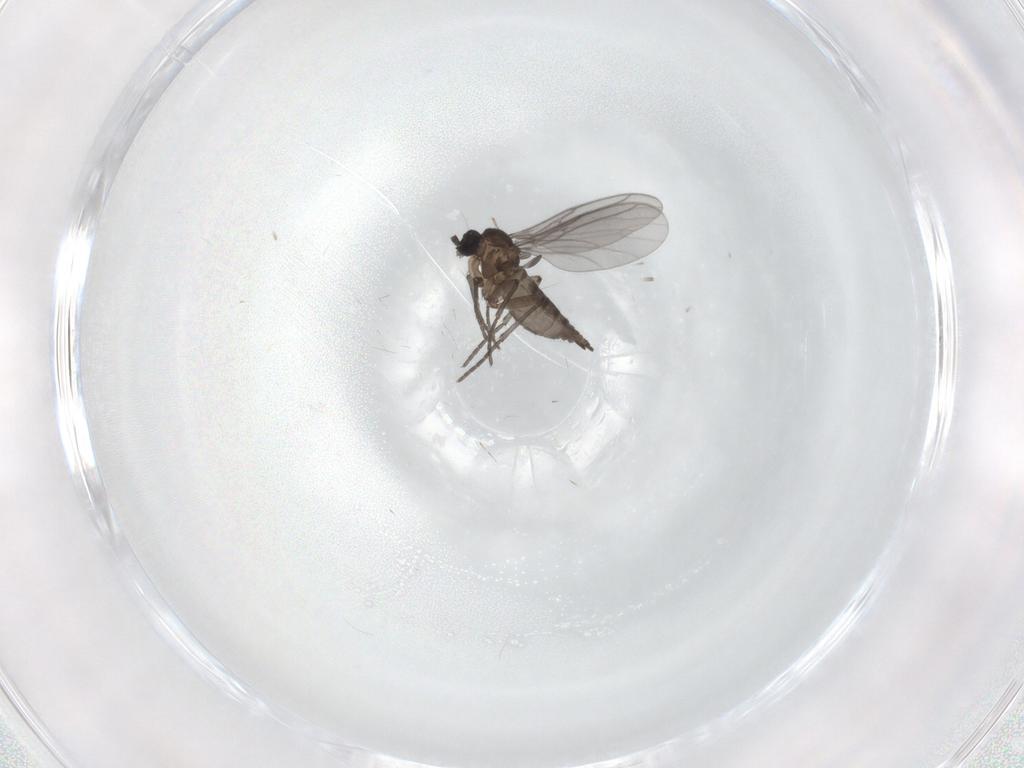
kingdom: Animalia
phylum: Arthropoda
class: Insecta
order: Diptera
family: Chironomidae
